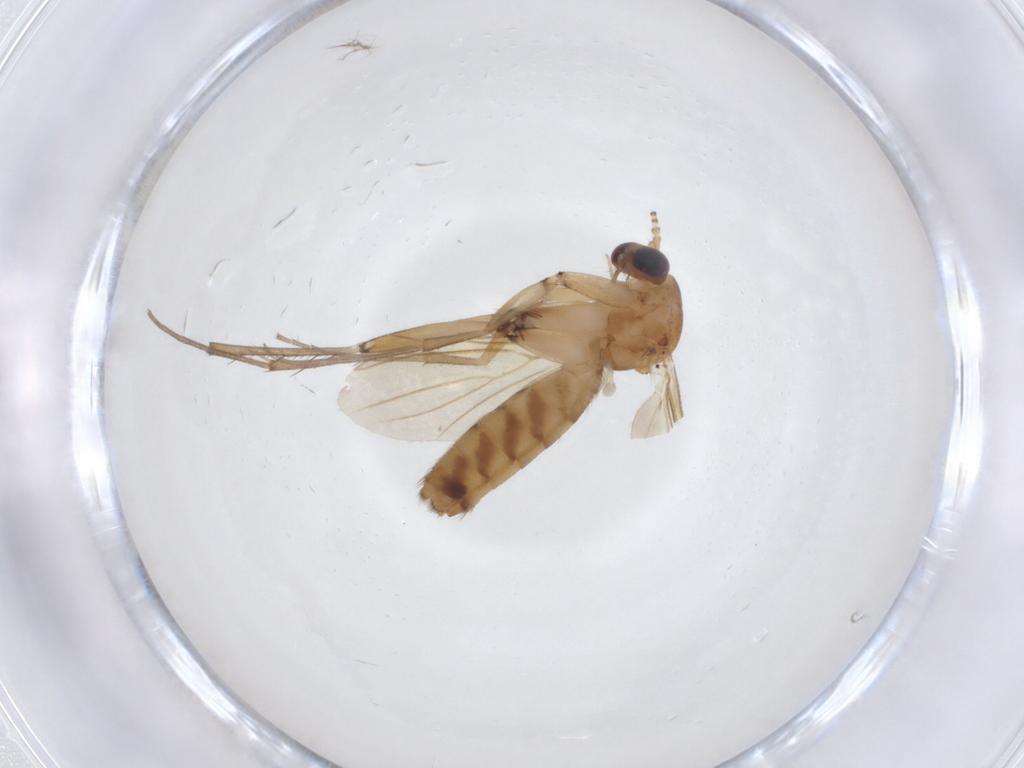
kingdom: Animalia
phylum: Arthropoda
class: Insecta
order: Diptera
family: Mycetophilidae
